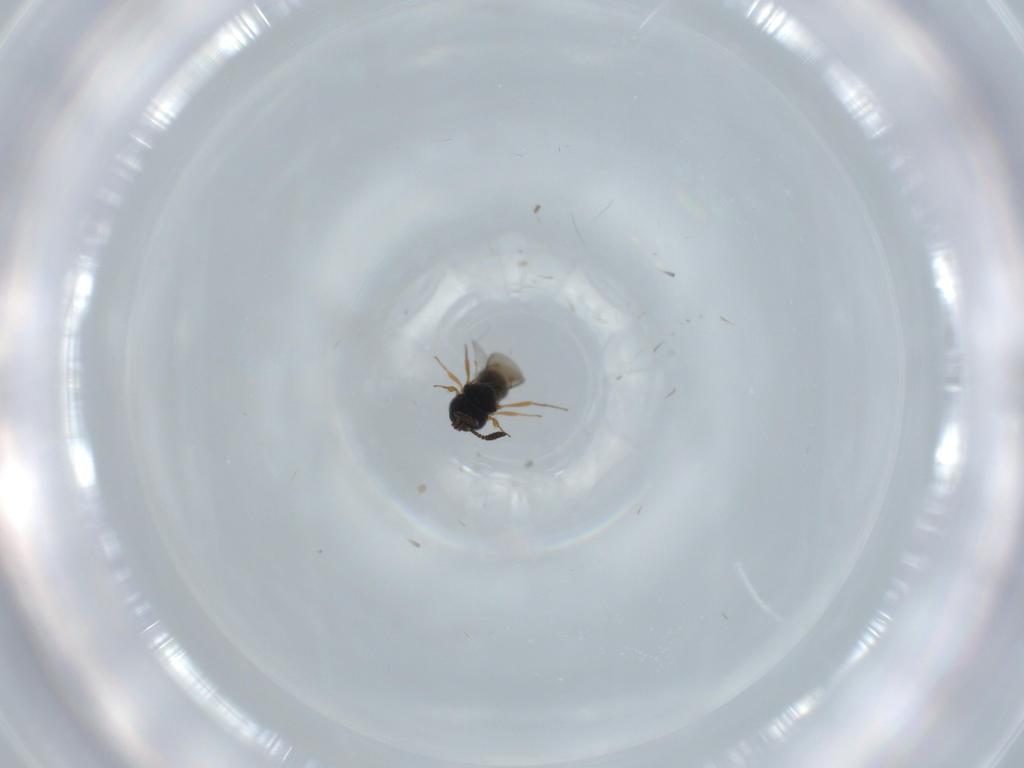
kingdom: Animalia
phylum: Arthropoda
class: Insecta
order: Hymenoptera
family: Scelionidae
